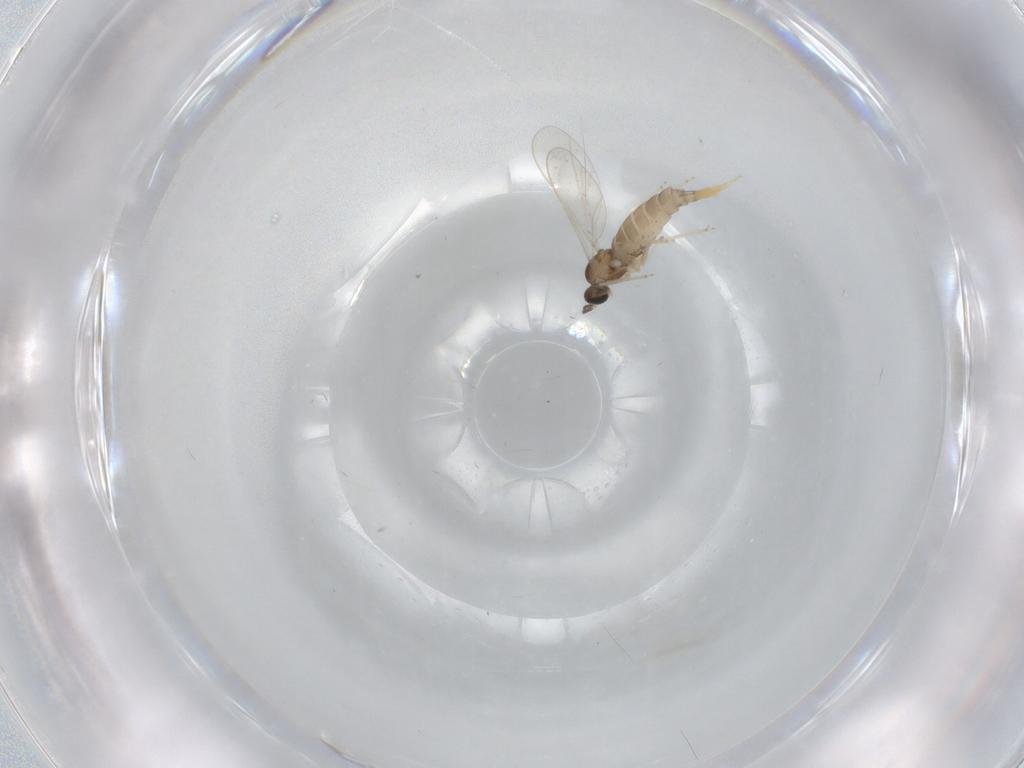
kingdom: Animalia
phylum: Arthropoda
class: Insecta
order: Diptera
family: Cecidomyiidae
